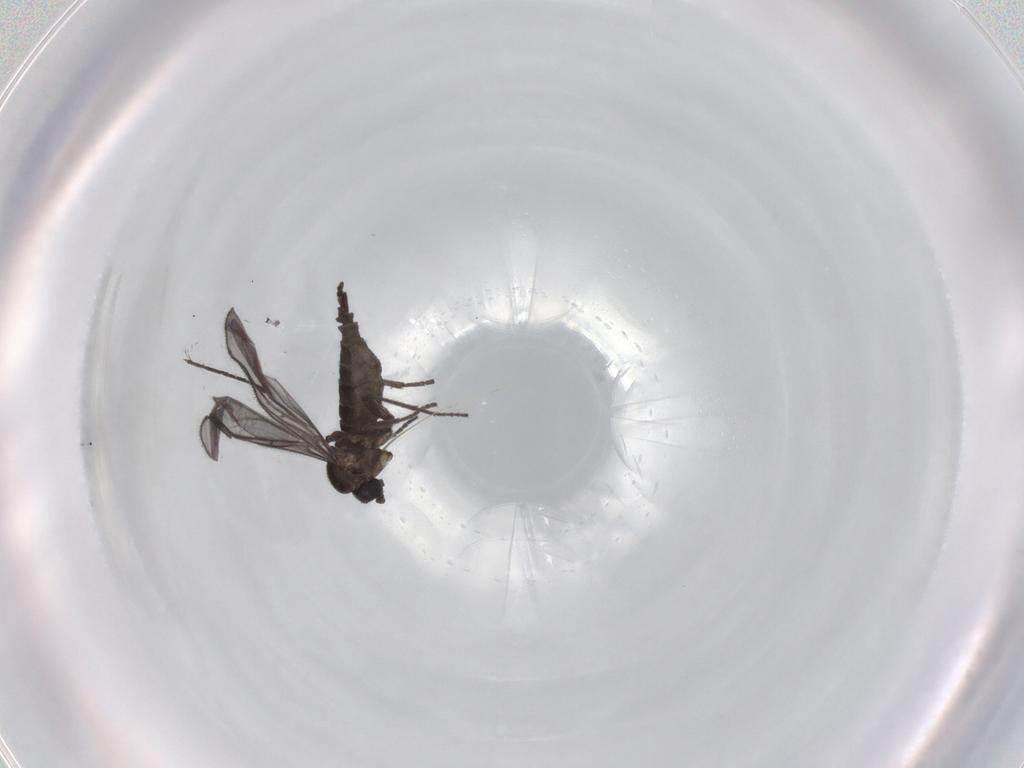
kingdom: Animalia
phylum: Arthropoda
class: Insecta
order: Diptera
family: Cecidomyiidae
